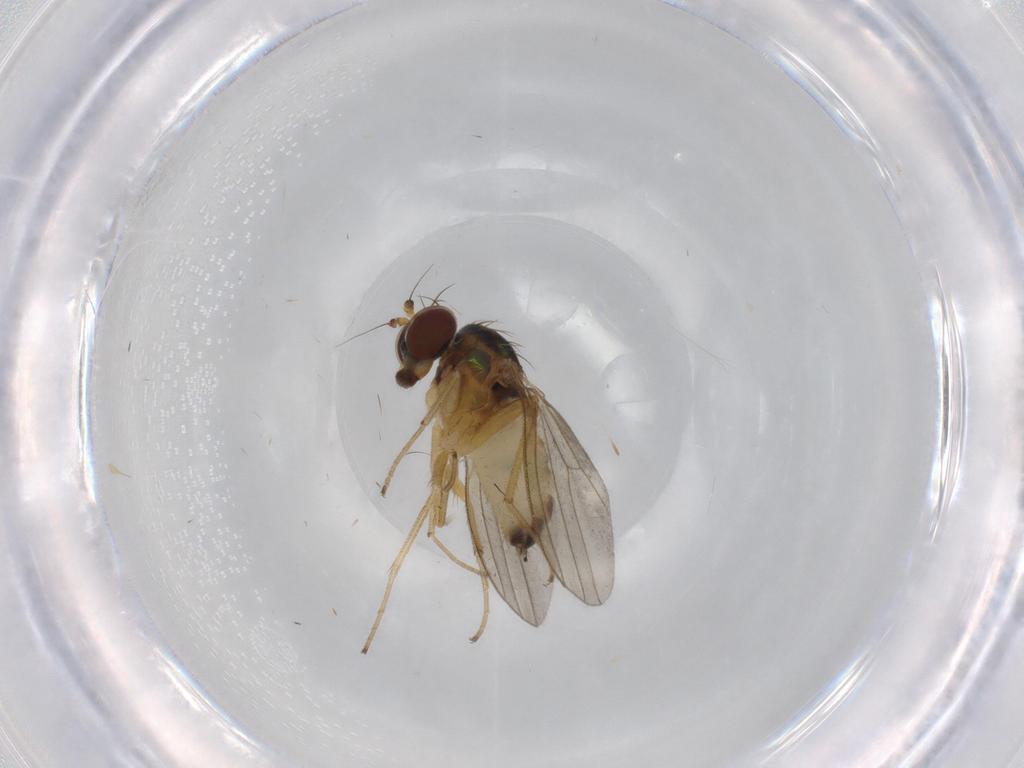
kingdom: Animalia
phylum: Arthropoda
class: Insecta
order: Diptera
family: Dolichopodidae
